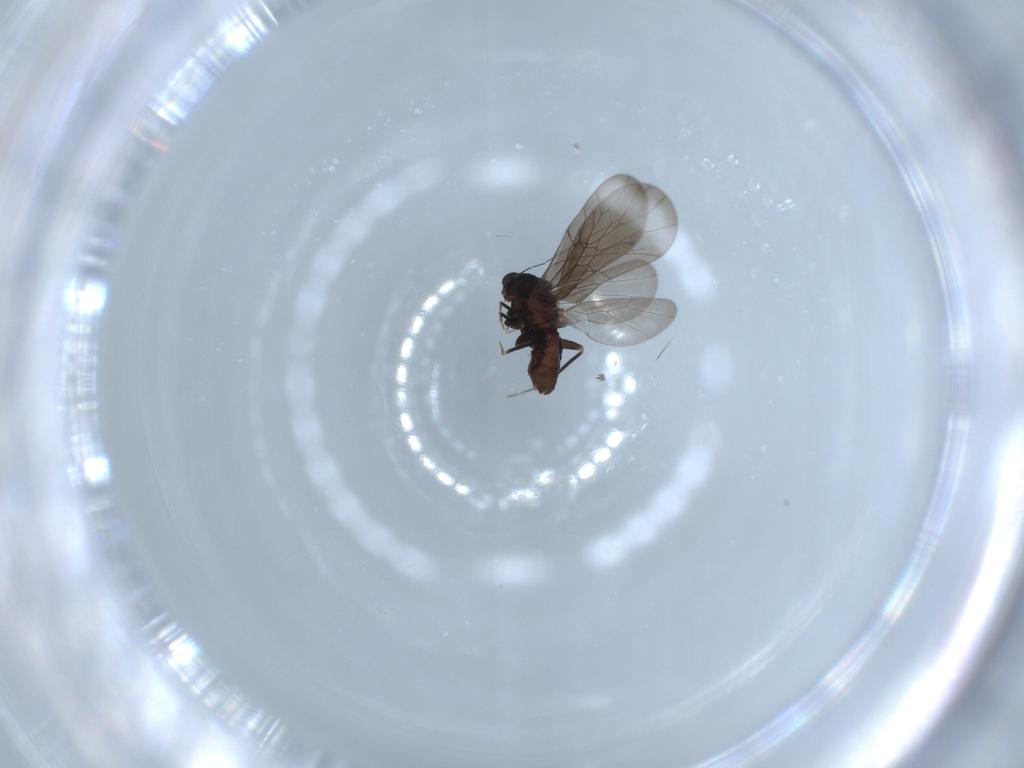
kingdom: Animalia
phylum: Arthropoda
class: Insecta
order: Psocodea
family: Lepidopsocidae
